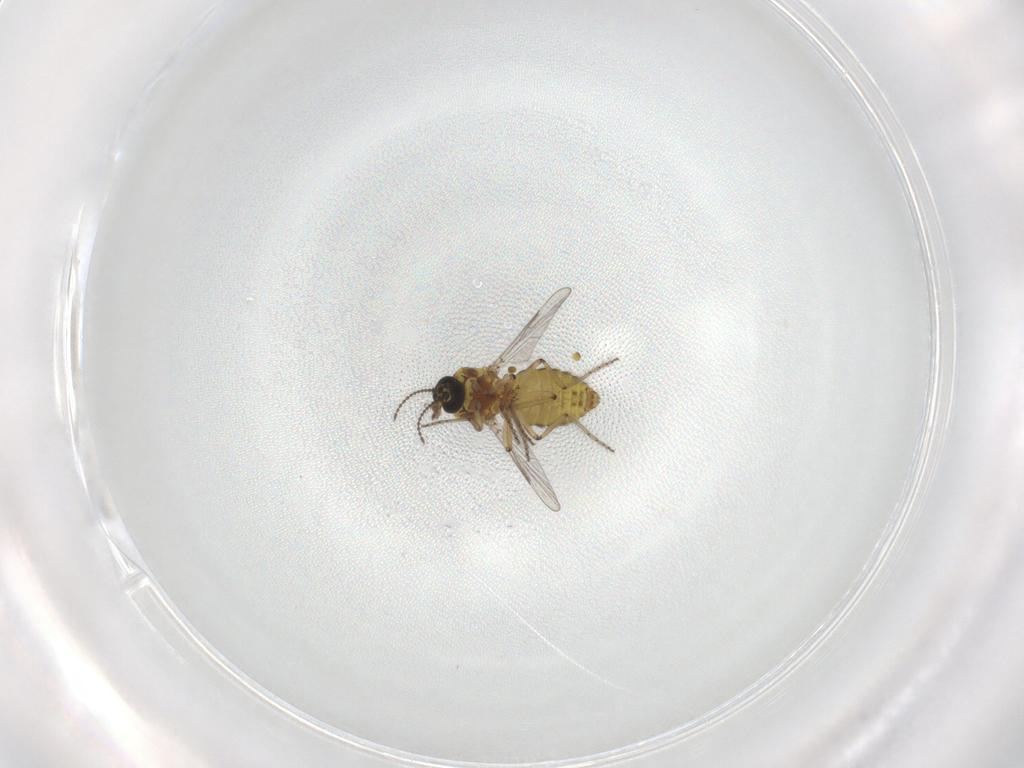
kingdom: Animalia
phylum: Arthropoda
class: Insecta
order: Diptera
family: Ceratopogonidae
